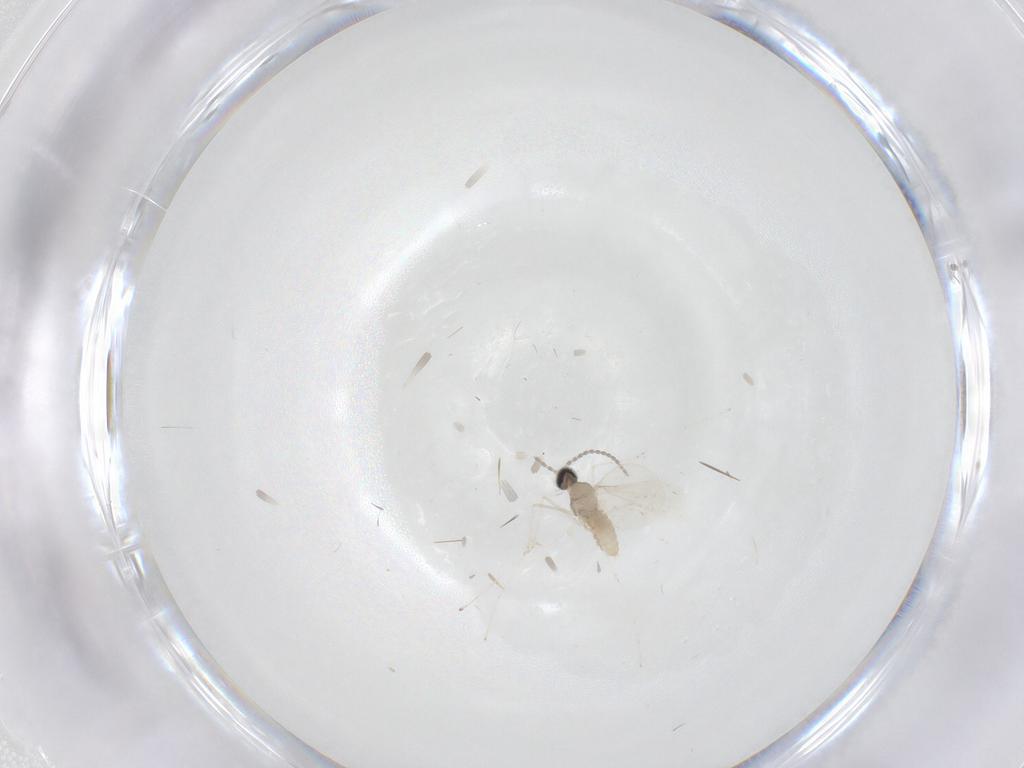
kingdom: Animalia
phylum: Arthropoda
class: Insecta
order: Diptera
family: Cecidomyiidae
